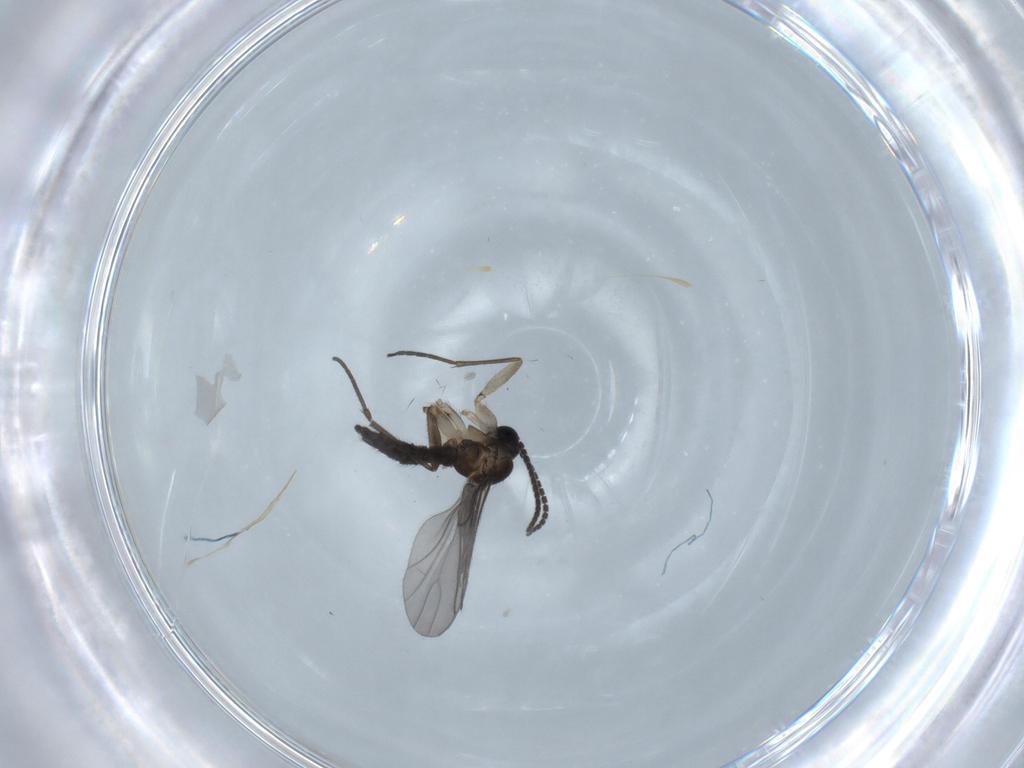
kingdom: Animalia
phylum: Arthropoda
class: Insecta
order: Diptera
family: Sciaridae
